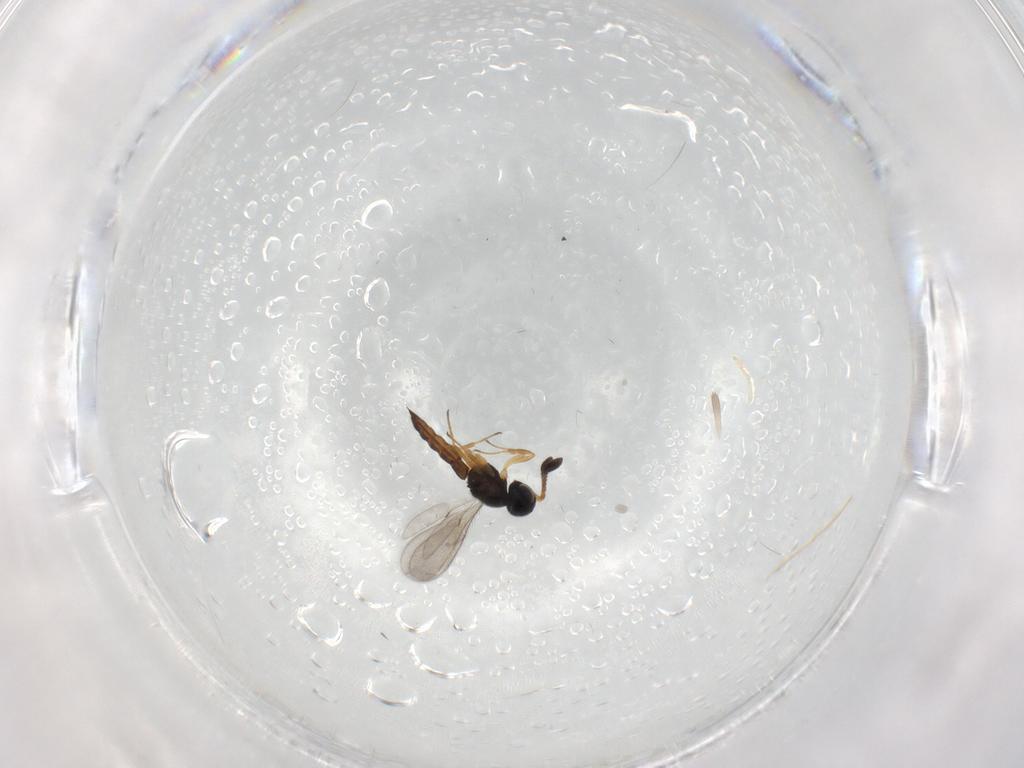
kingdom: Animalia
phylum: Arthropoda
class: Insecta
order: Hymenoptera
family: Scelionidae
